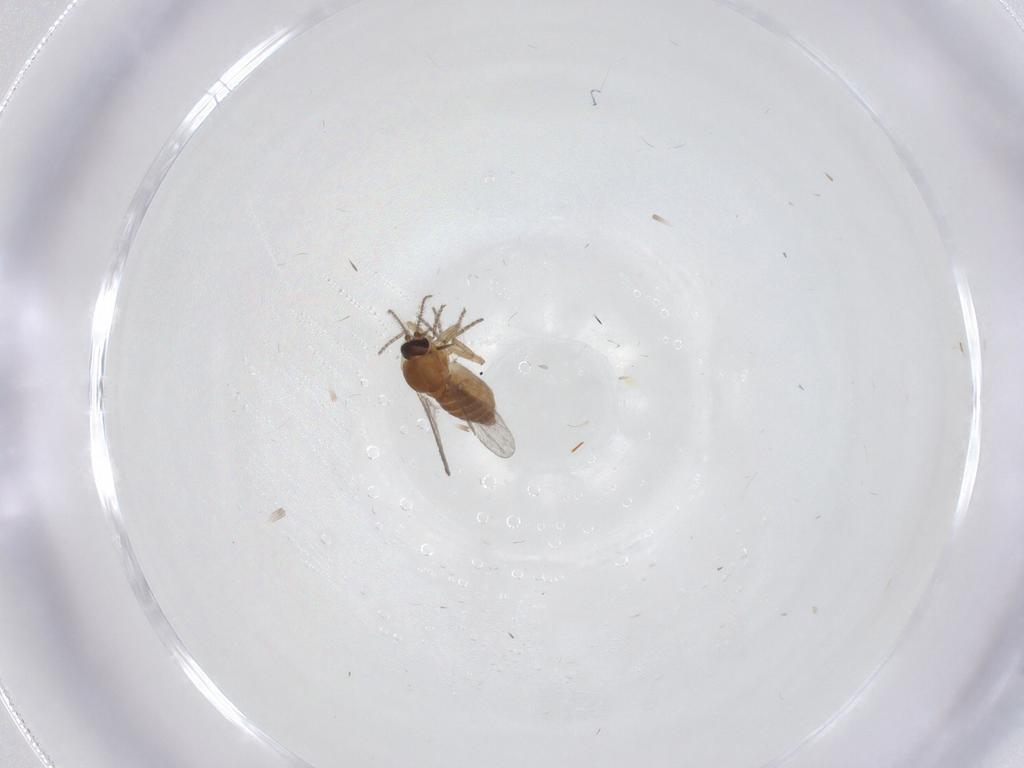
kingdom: Animalia
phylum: Arthropoda
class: Insecta
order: Diptera
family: Ceratopogonidae
